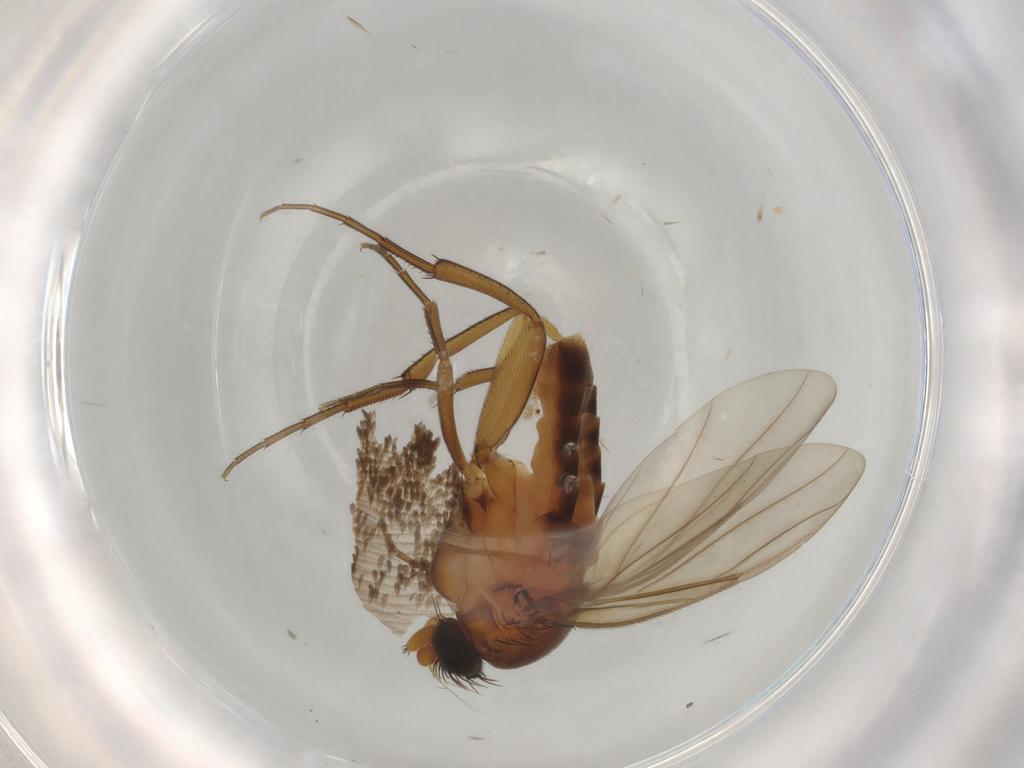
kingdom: Animalia
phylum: Arthropoda
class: Insecta
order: Diptera
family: Phoridae
